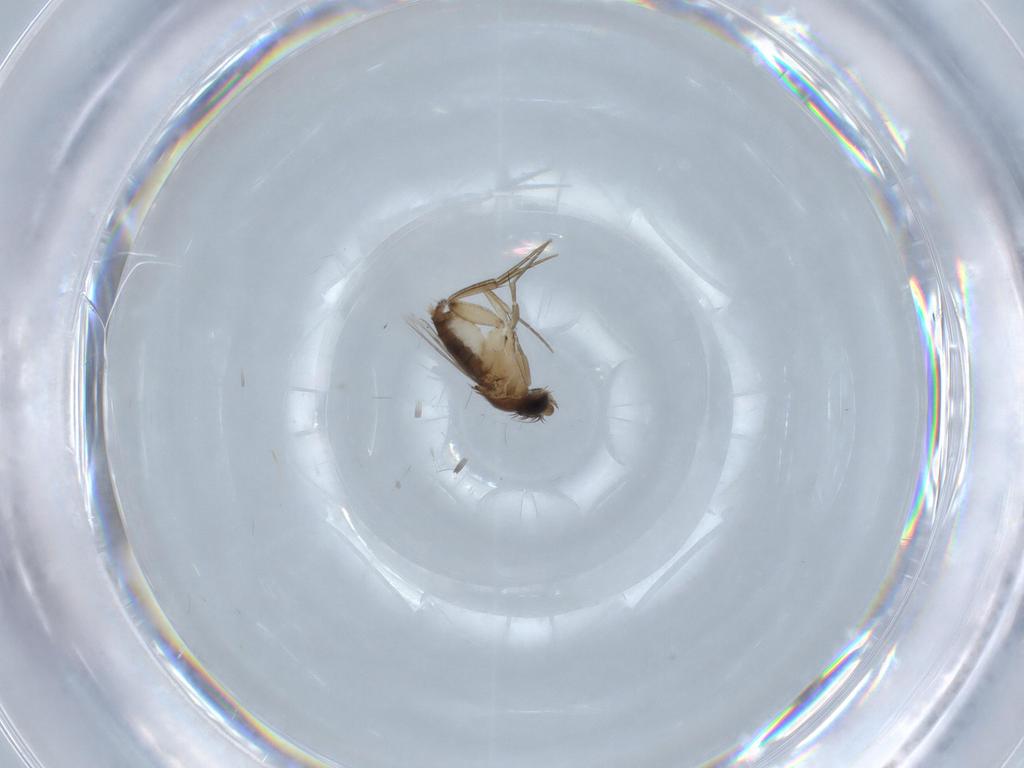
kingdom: Animalia
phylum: Arthropoda
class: Insecta
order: Diptera
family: Phoridae
